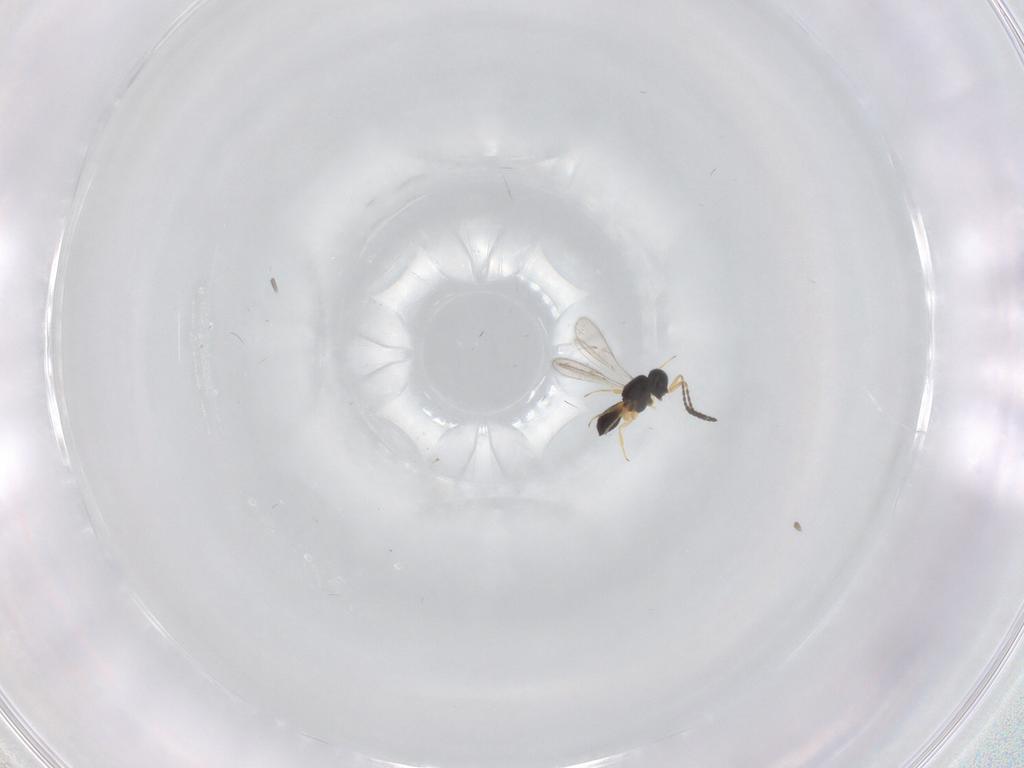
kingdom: Animalia
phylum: Arthropoda
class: Insecta
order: Hymenoptera
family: Scelionidae
